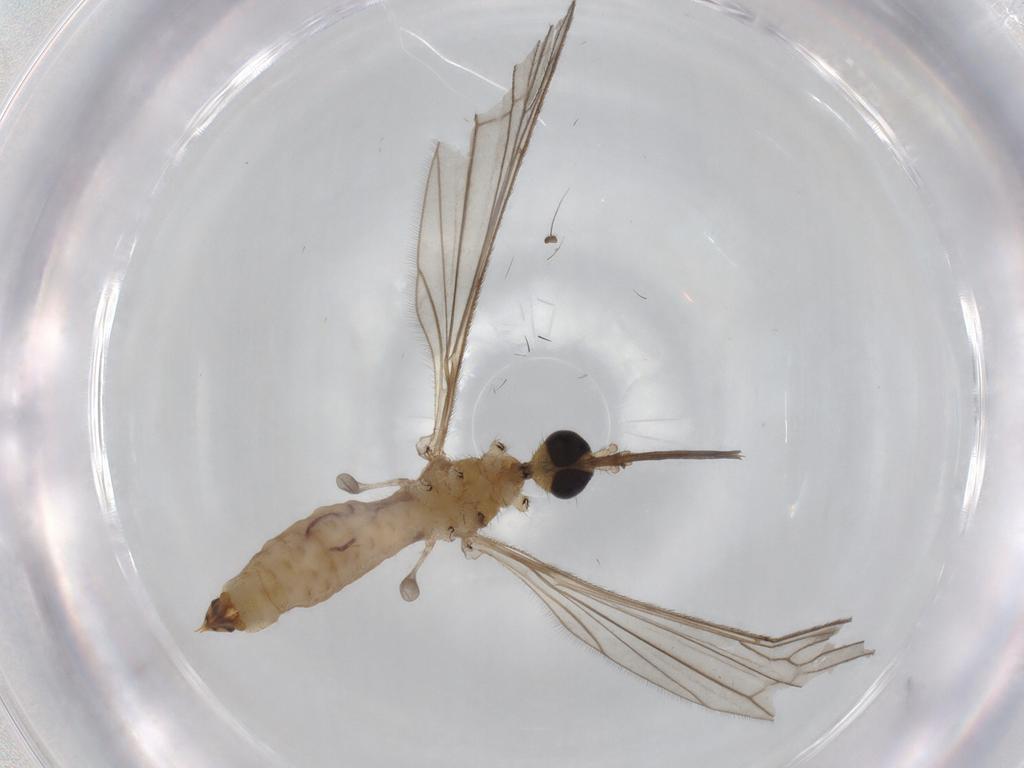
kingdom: Animalia
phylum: Arthropoda
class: Insecta
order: Diptera
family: Dolichopodidae
